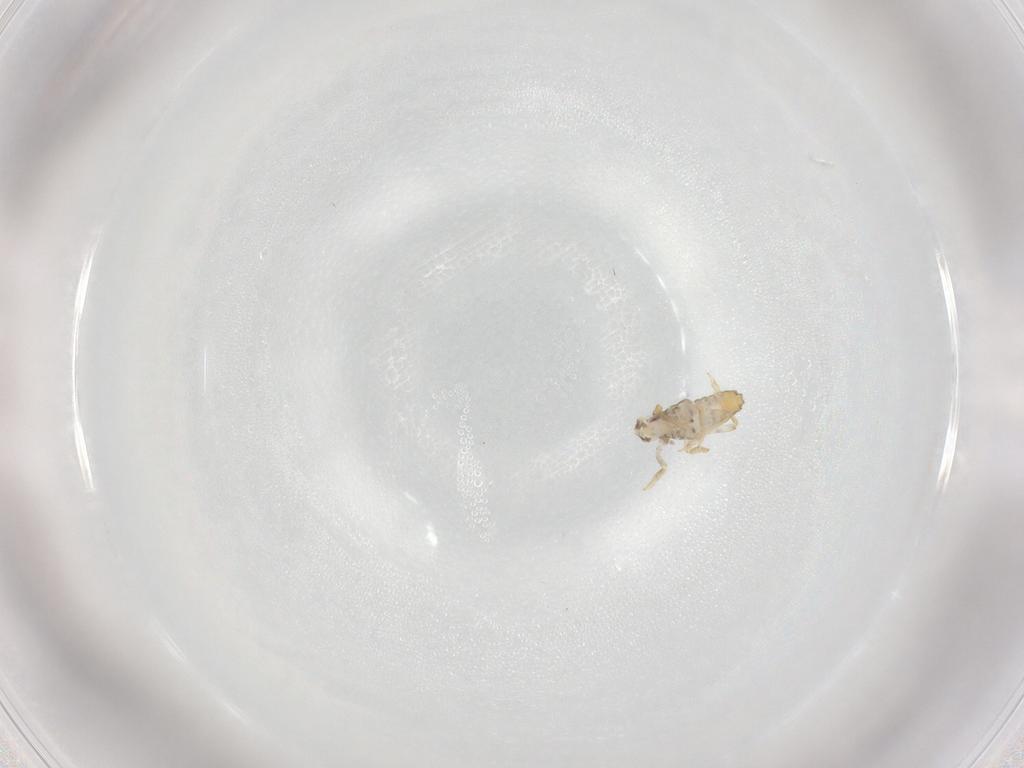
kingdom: Animalia
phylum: Arthropoda
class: Insecta
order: Hemiptera
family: Delphacidae
